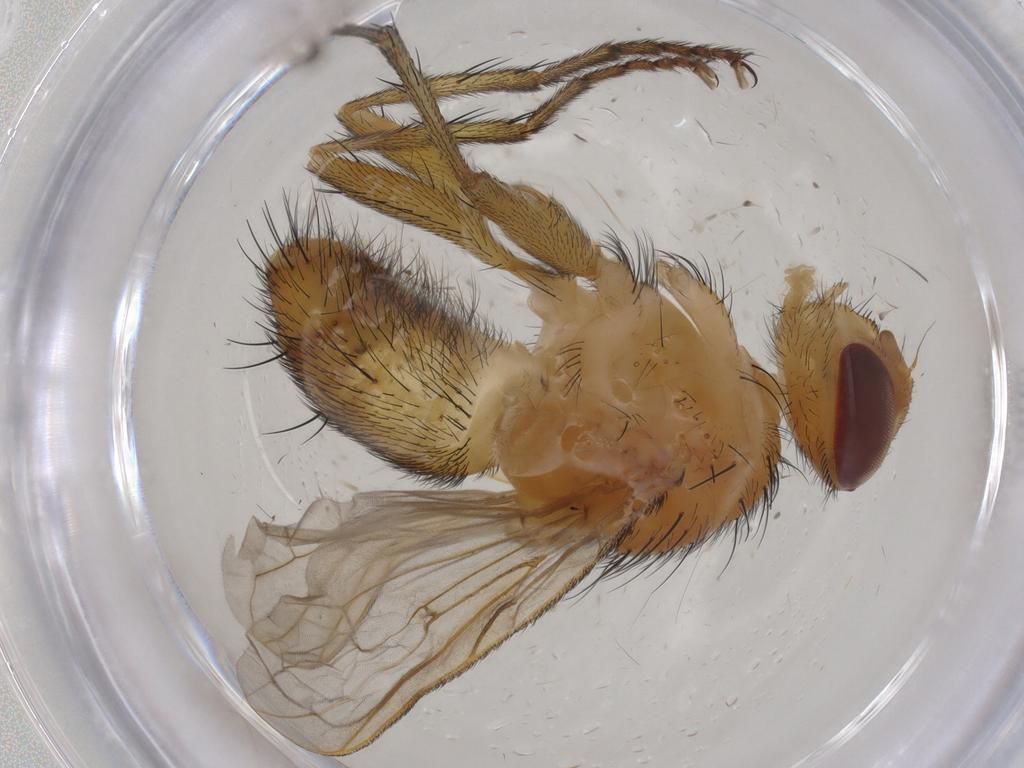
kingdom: Animalia
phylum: Arthropoda
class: Insecta
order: Diptera
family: Tachinidae
